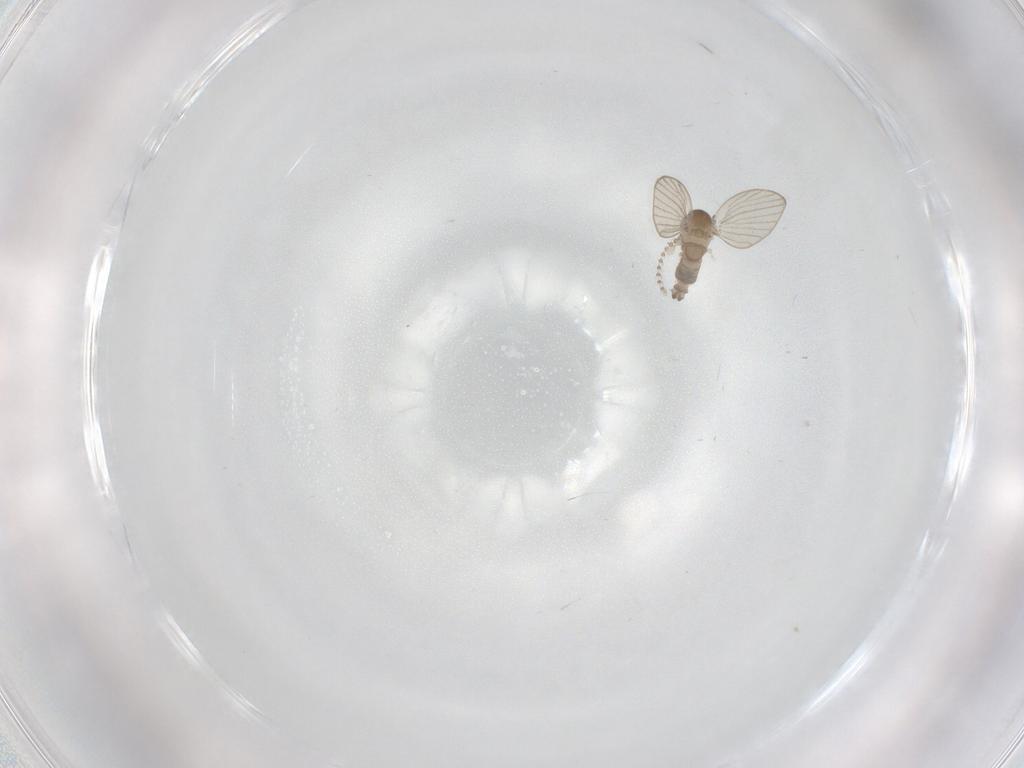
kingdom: Animalia
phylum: Arthropoda
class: Insecta
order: Diptera
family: Psychodidae
